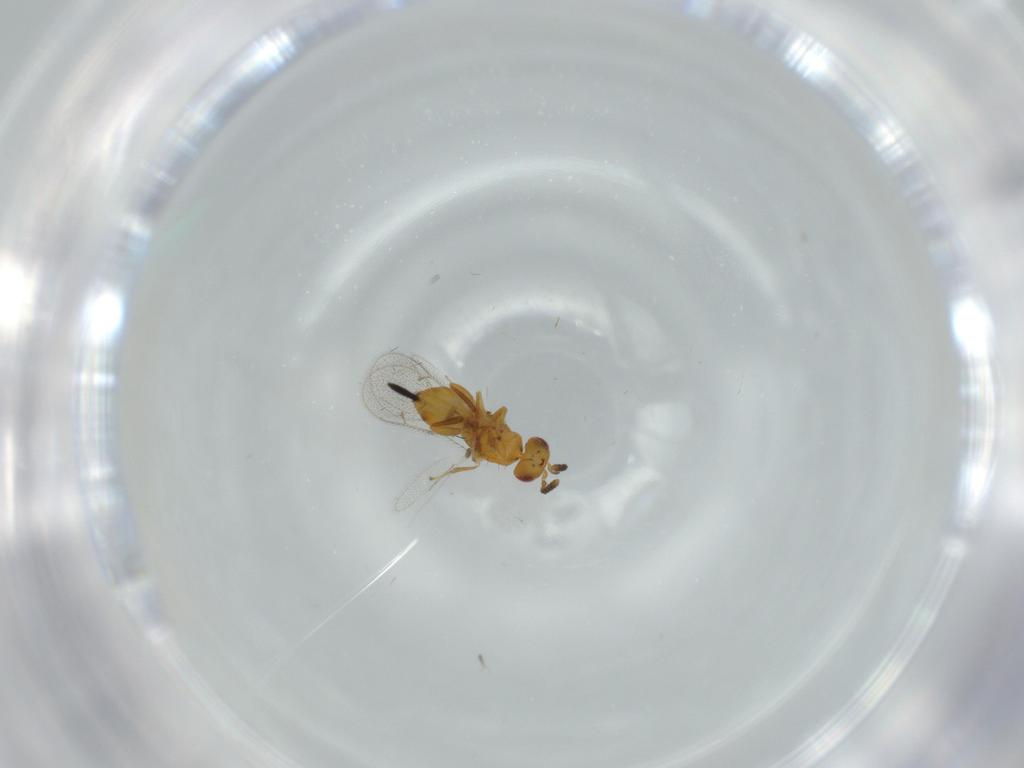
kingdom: Animalia
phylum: Arthropoda
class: Insecta
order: Hymenoptera
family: Torymidae
